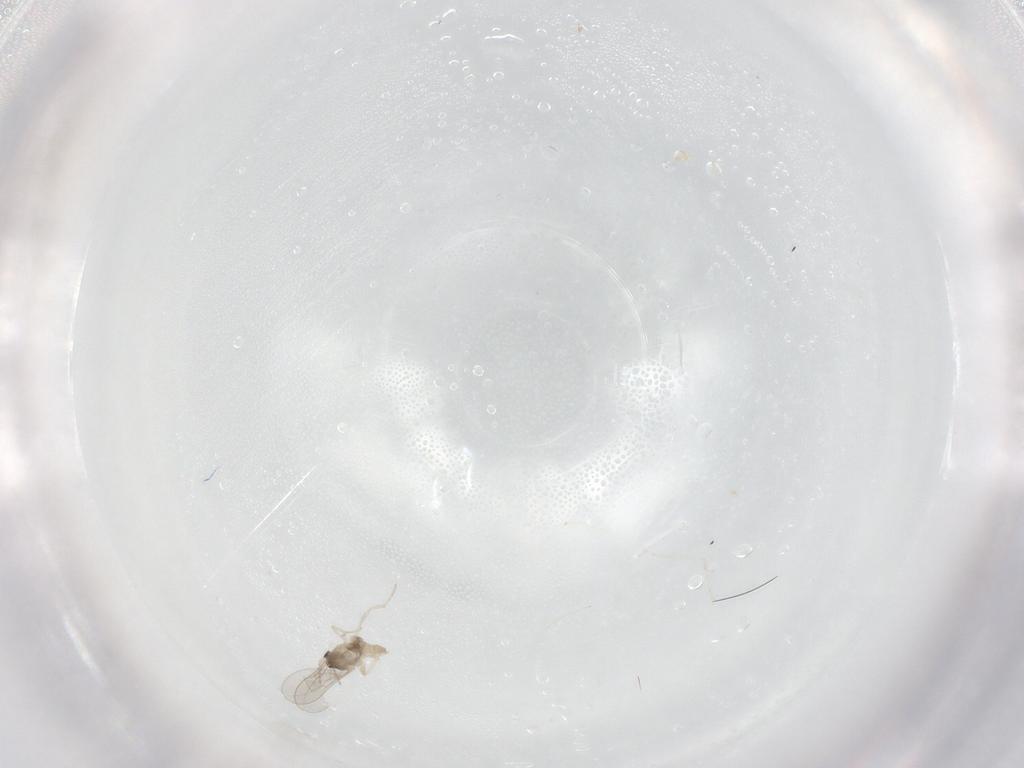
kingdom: Animalia
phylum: Arthropoda
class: Insecta
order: Diptera
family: Cecidomyiidae
